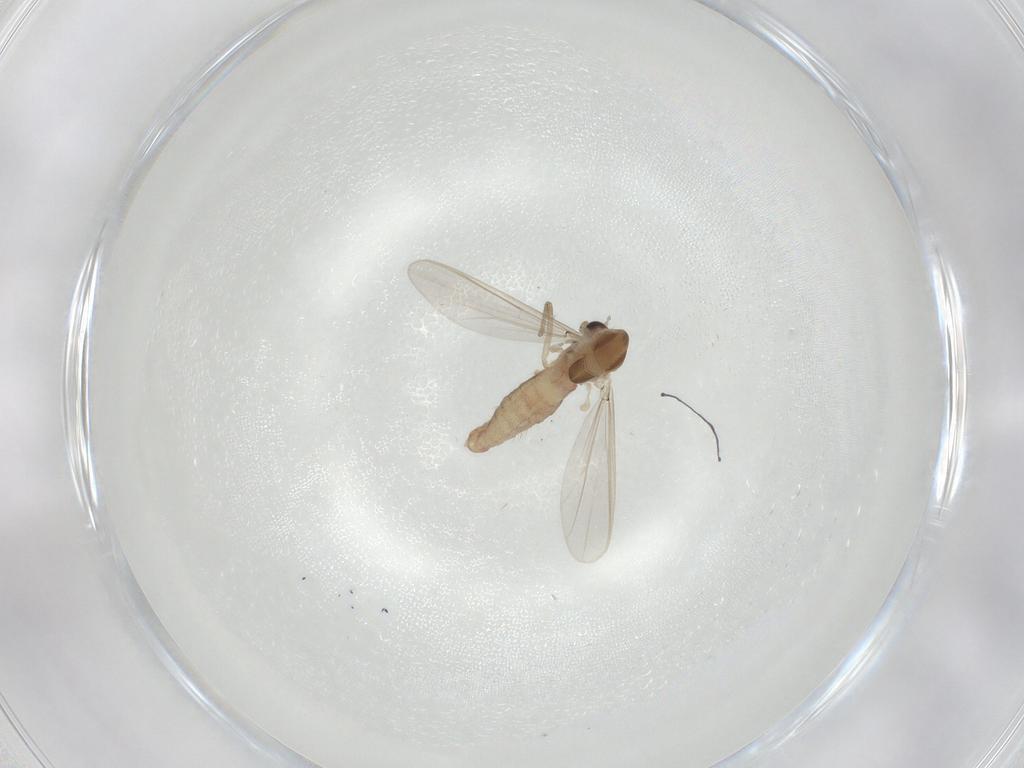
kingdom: Animalia
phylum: Arthropoda
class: Insecta
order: Diptera
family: Chironomidae
